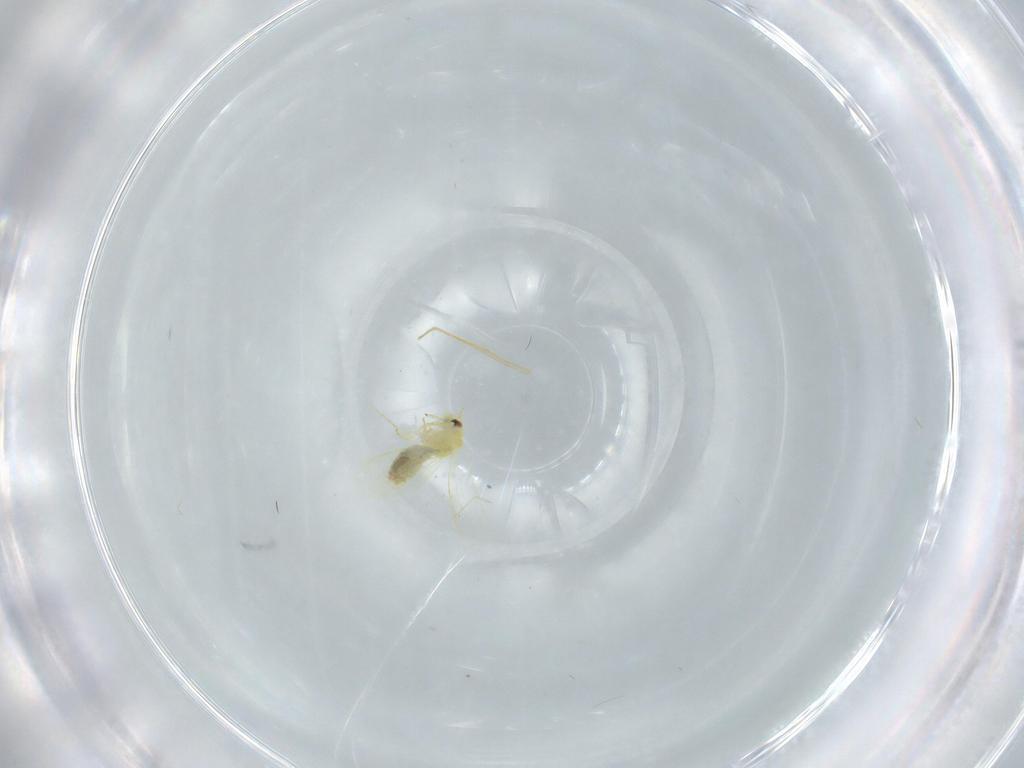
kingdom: Animalia
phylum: Arthropoda
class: Insecta
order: Hemiptera
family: Aleyrodidae
